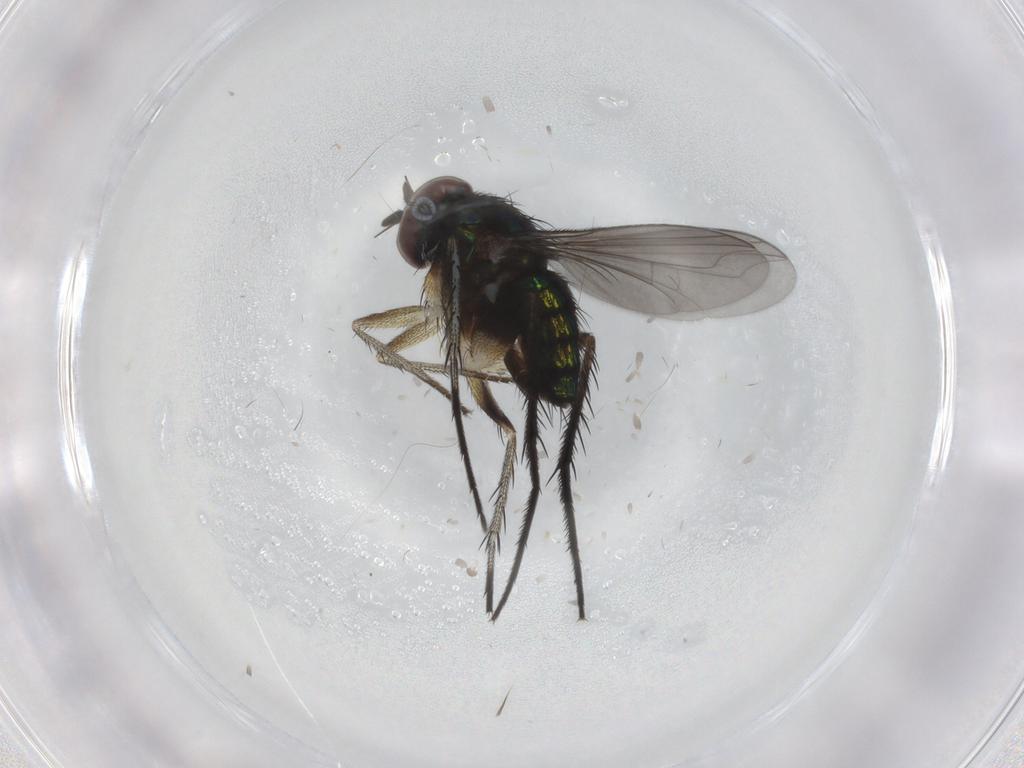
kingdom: Animalia
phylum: Arthropoda
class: Insecta
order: Diptera
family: Dolichopodidae
